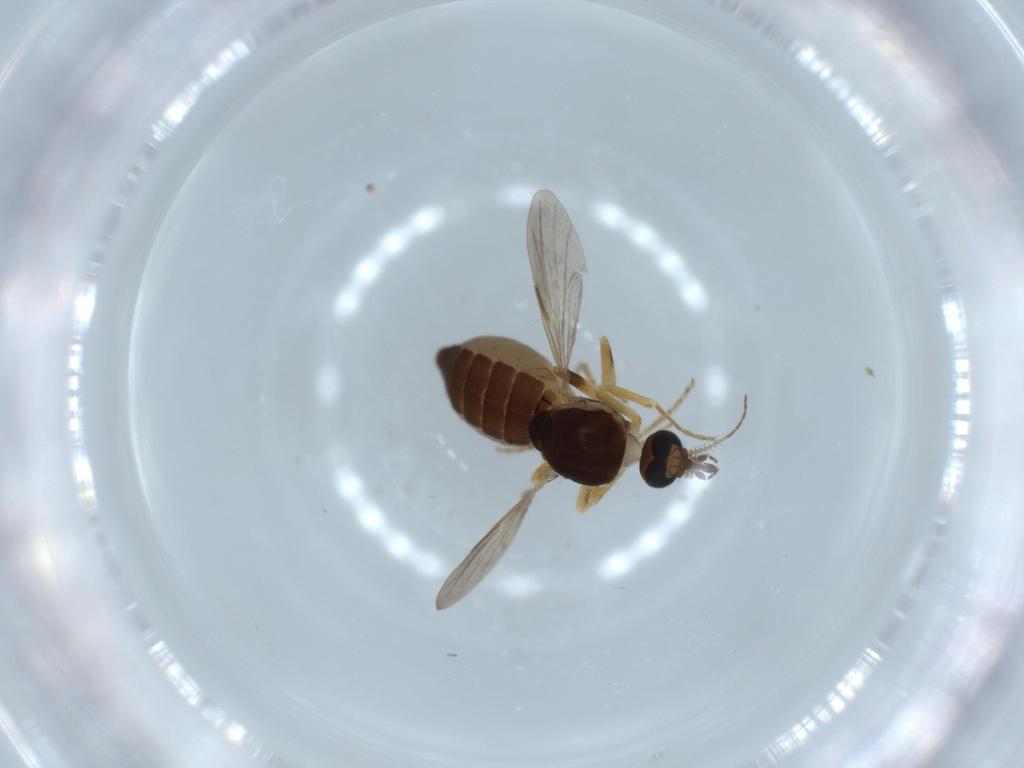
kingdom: Animalia
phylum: Arthropoda
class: Insecta
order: Diptera
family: Ceratopogonidae
